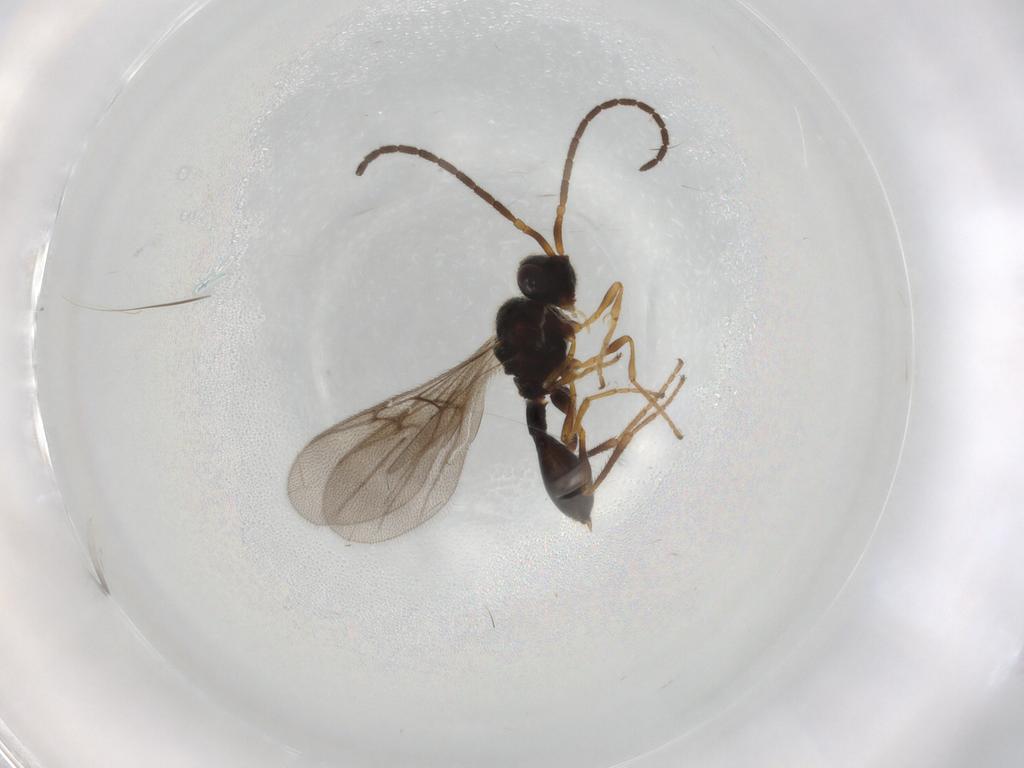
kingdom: Animalia
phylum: Arthropoda
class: Insecta
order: Hymenoptera
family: Diapriidae
